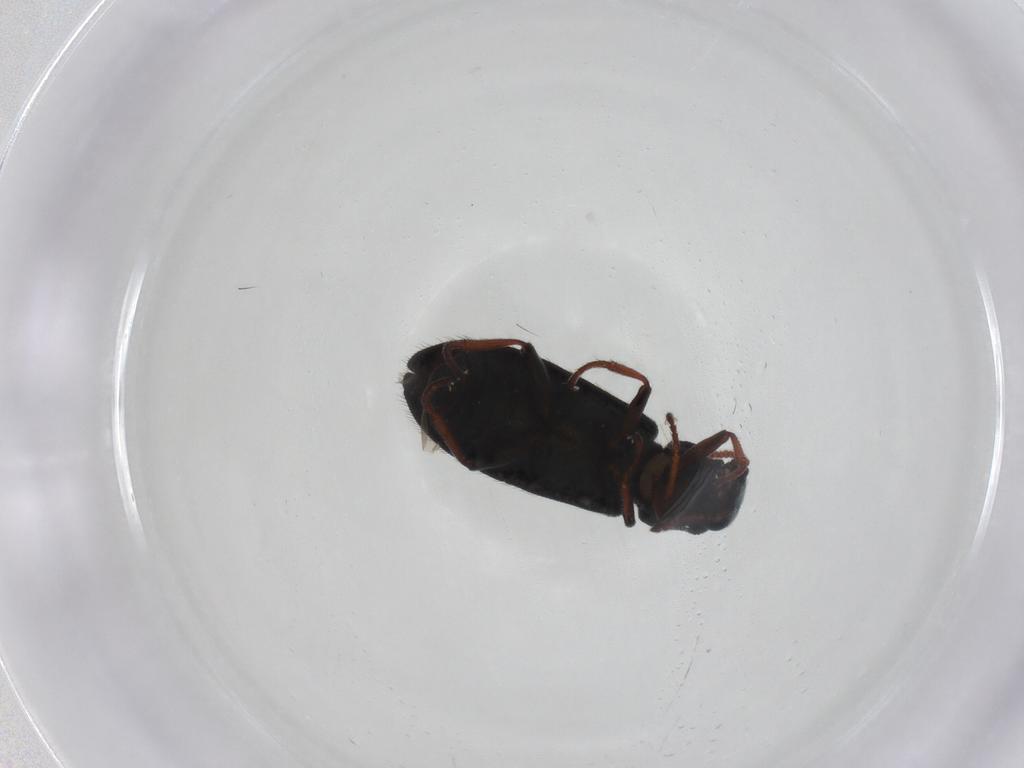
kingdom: Animalia
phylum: Arthropoda
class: Insecta
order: Coleoptera
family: Melyridae
